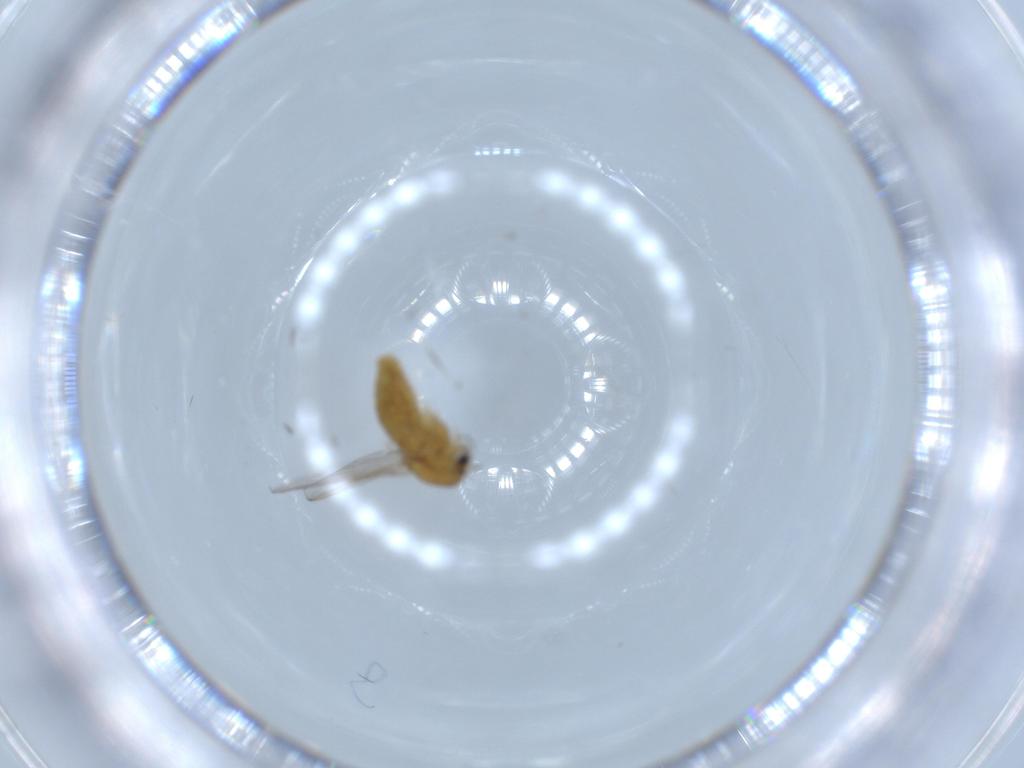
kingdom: Animalia
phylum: Arthropoda
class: Insecta
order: Diptera
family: Chironomidae
